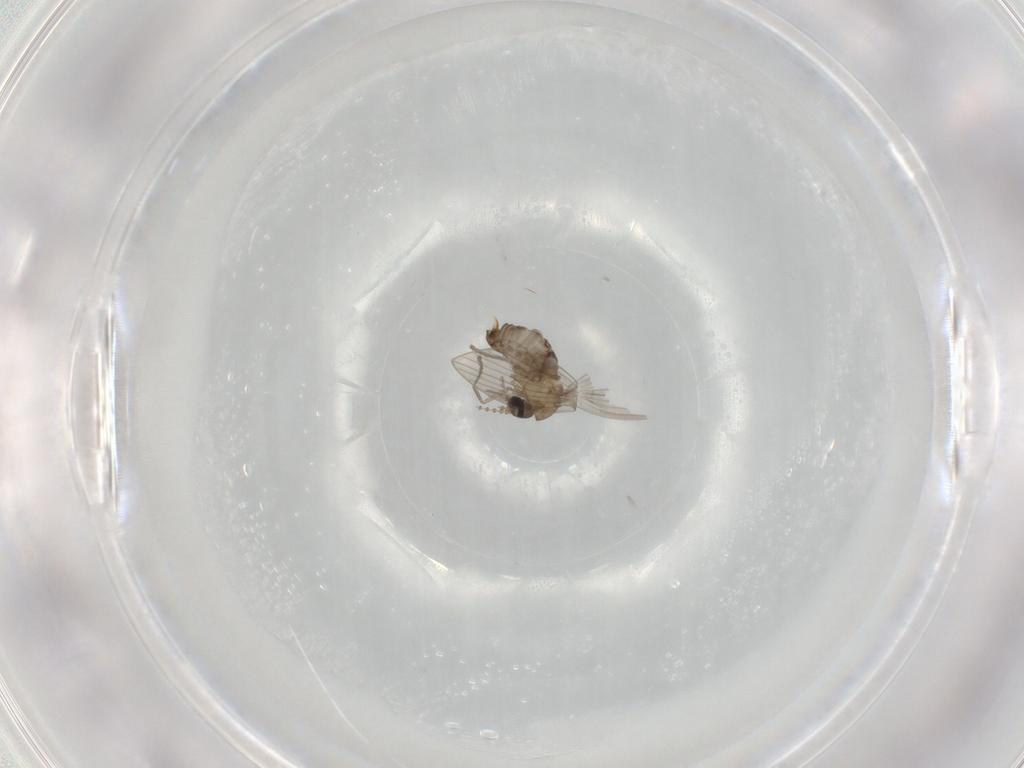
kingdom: Animalia
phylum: Arthropoda
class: Insecta
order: Diptera
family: Psychodidae
